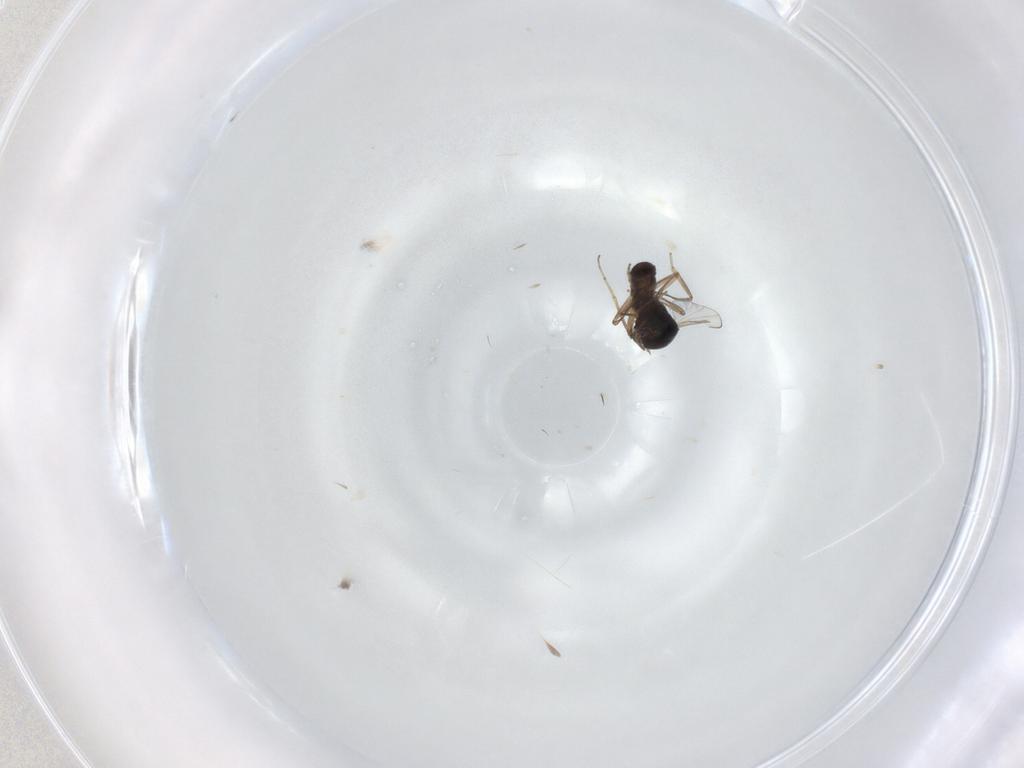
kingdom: Animalia
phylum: Arthropoda
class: Insecta
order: Diptera
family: Ceratopogonidae
